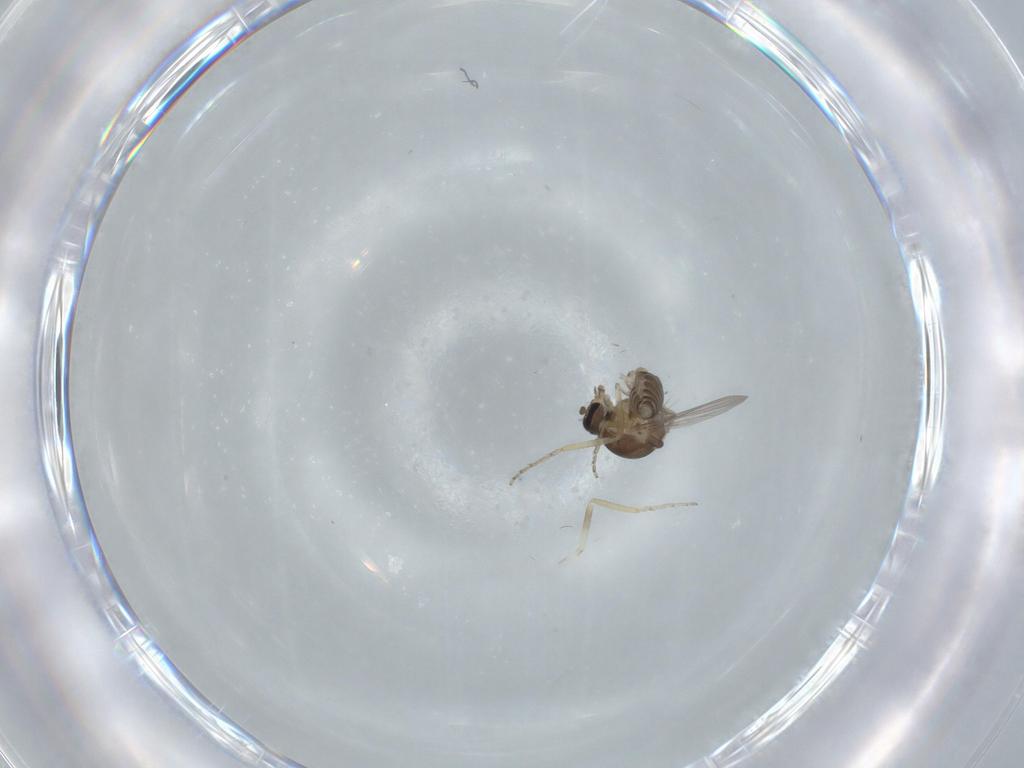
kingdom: Animalia
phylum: Arthropoda
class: Insecta
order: Diptera
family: Ceratopogonidae
